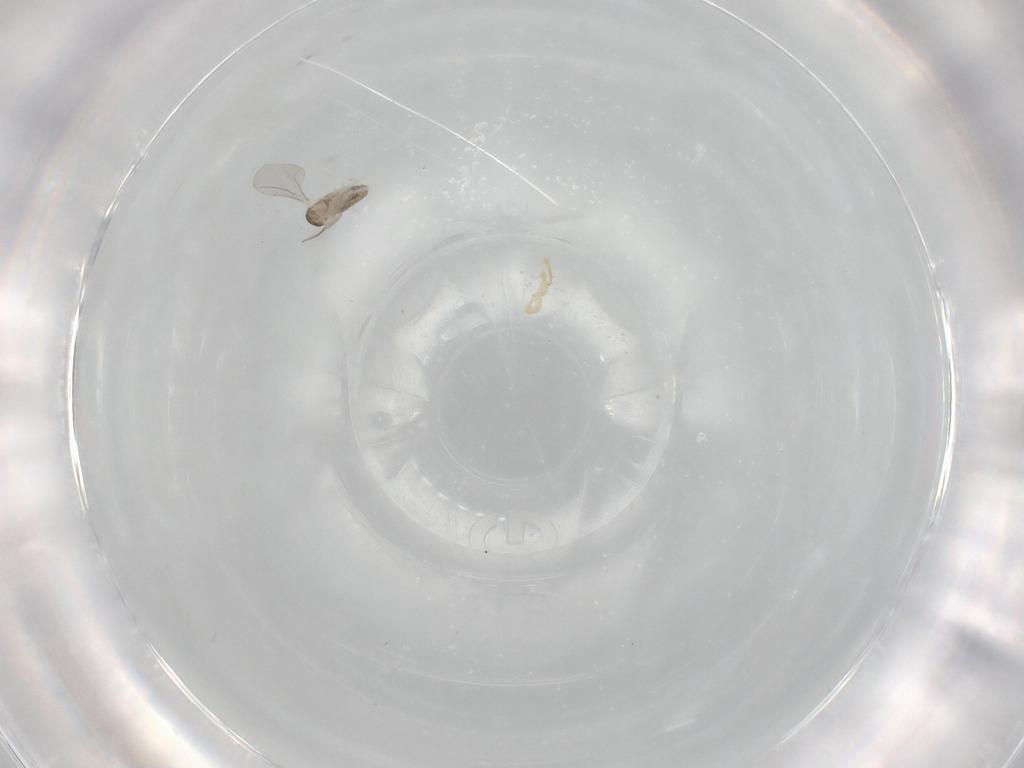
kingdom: Animalia
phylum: Arthropoda
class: Insecta
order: Diptera
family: Cecidomyiidae
